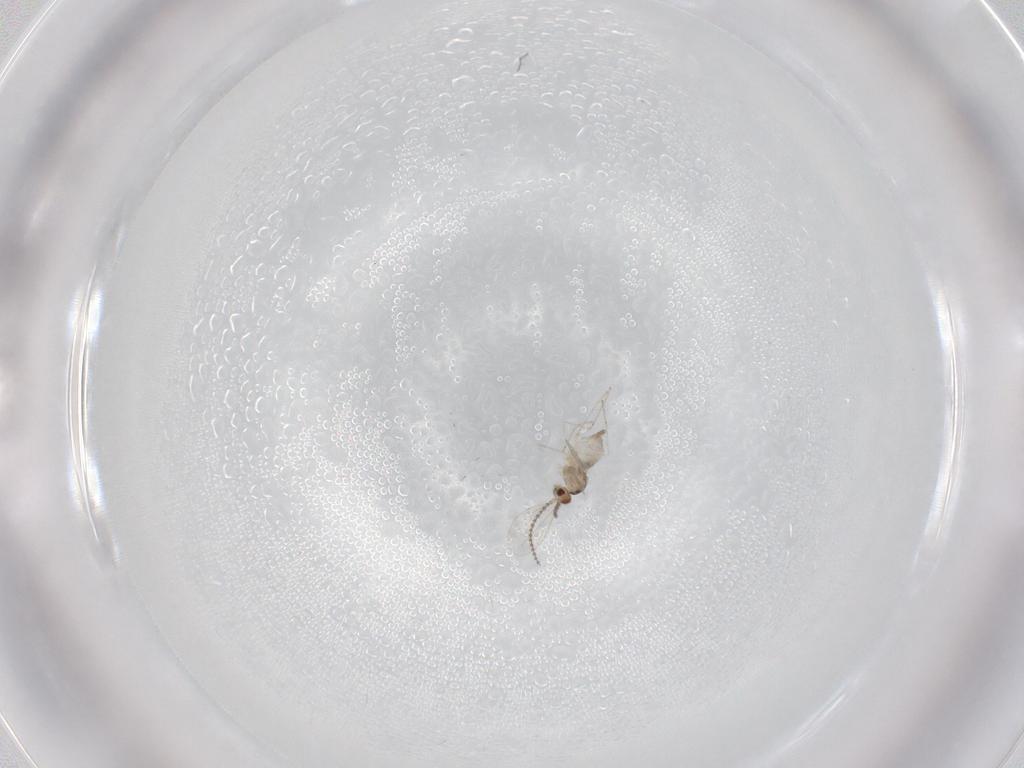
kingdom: Animalia
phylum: Arthropoda
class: Insecta
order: Diptera
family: Cecidomyiidae
